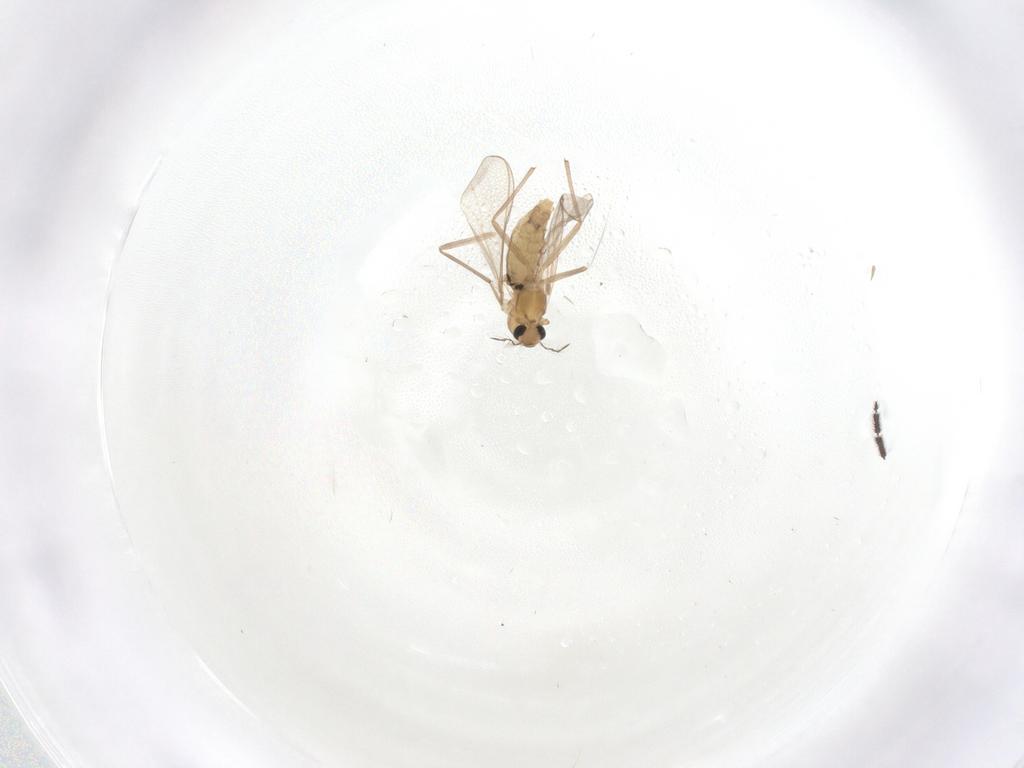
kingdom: Animalia
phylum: Arthropoda
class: Insecta
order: Diptera
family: Chironomidae
